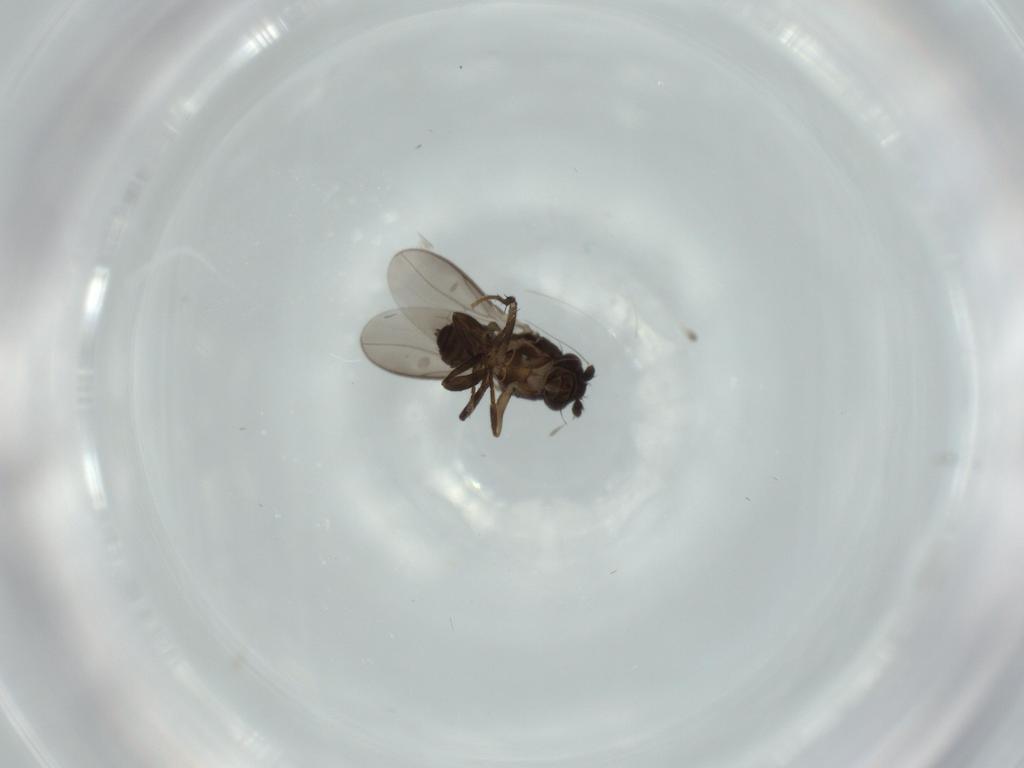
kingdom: Animalia
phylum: Arthropoda
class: Insecta
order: Diptera
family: Sphaeroceridae
